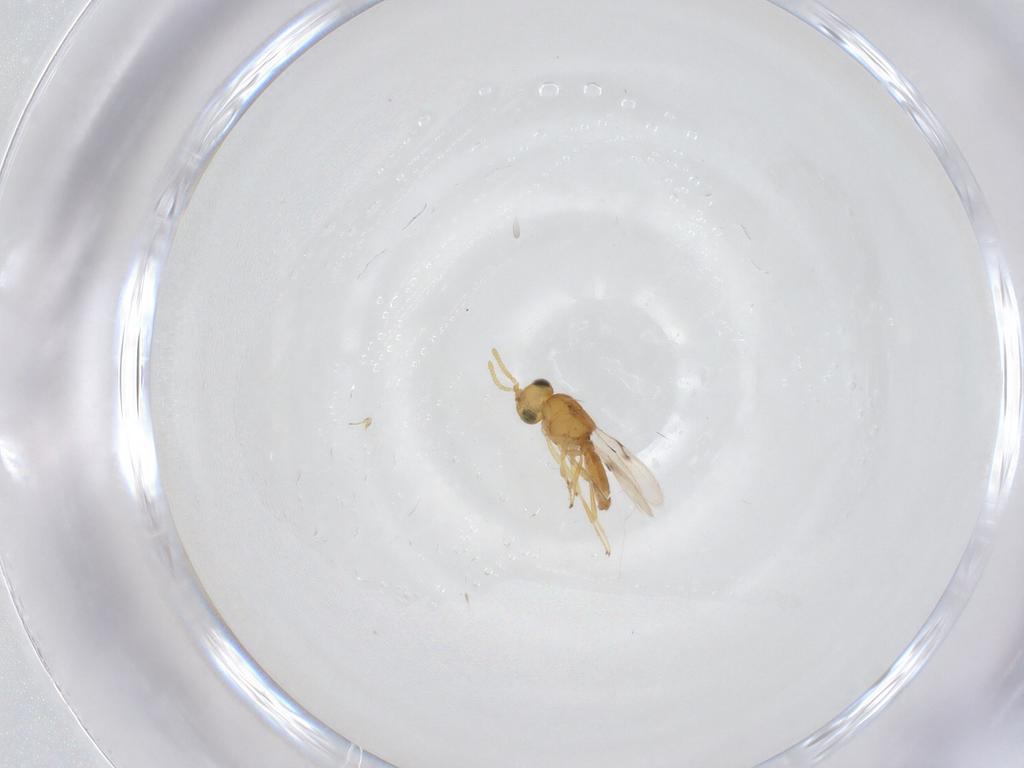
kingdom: Animalia
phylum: Arthropoda
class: Insecta
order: Hymenoptera
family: Scelionidae
